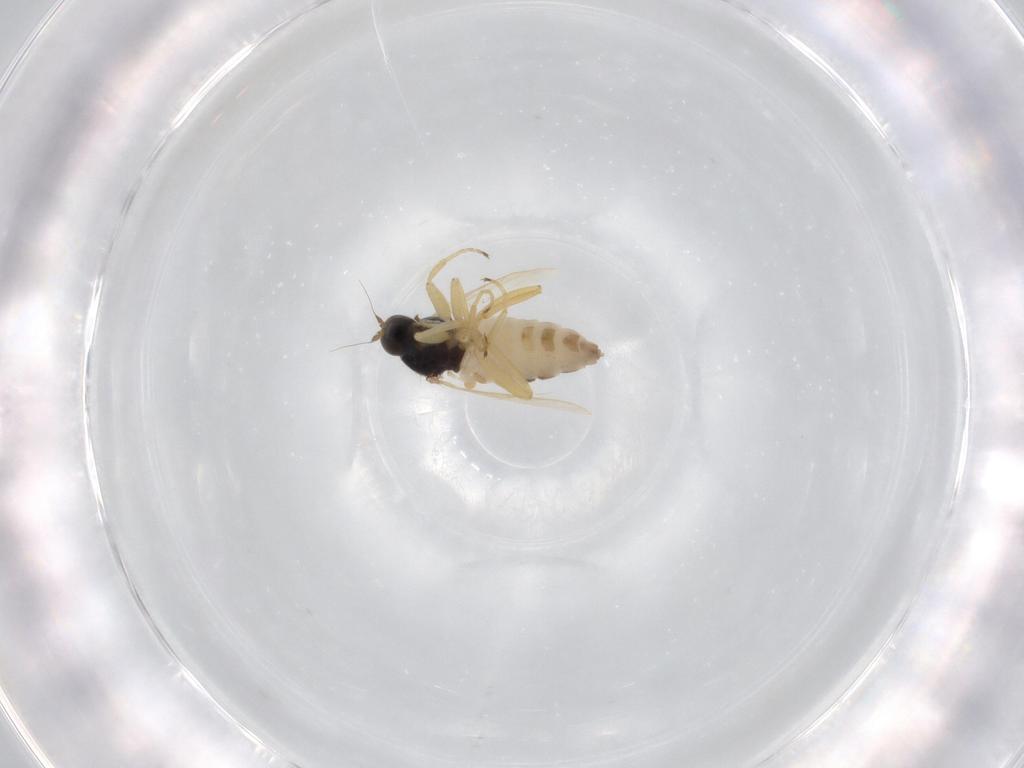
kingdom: Animalia
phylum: Arthropoda
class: Insecta
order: Diptera
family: Hybotidae
